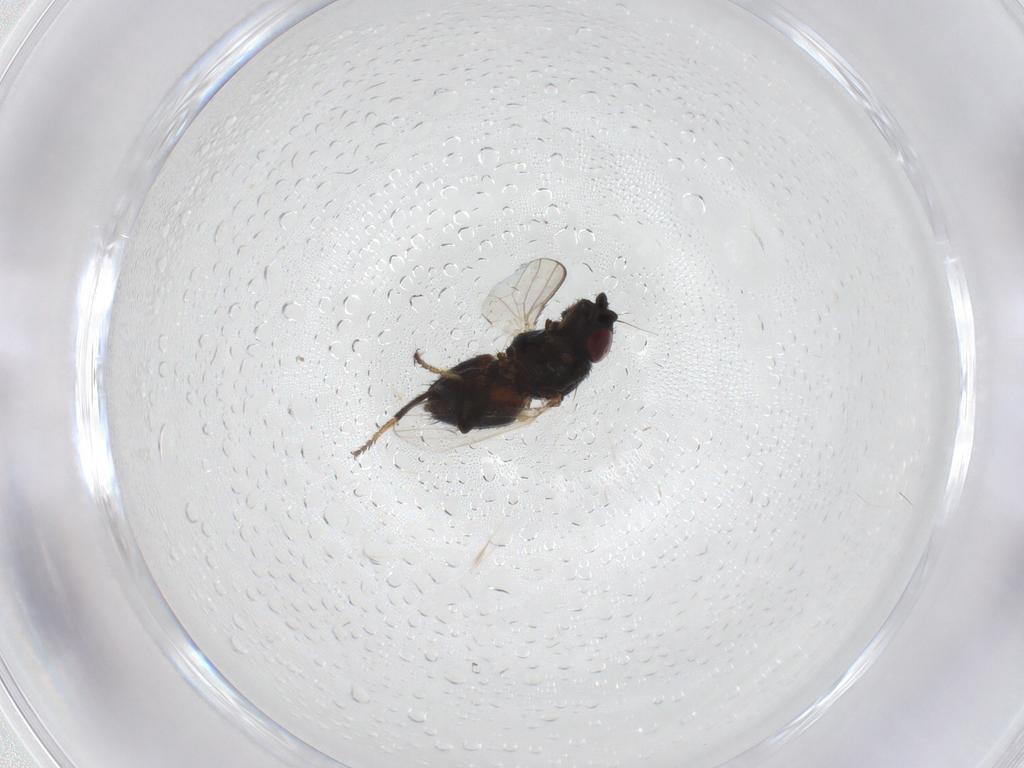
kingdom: Animalia
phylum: Arthropoda
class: Insecta
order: Diptera
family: Milichiidae
